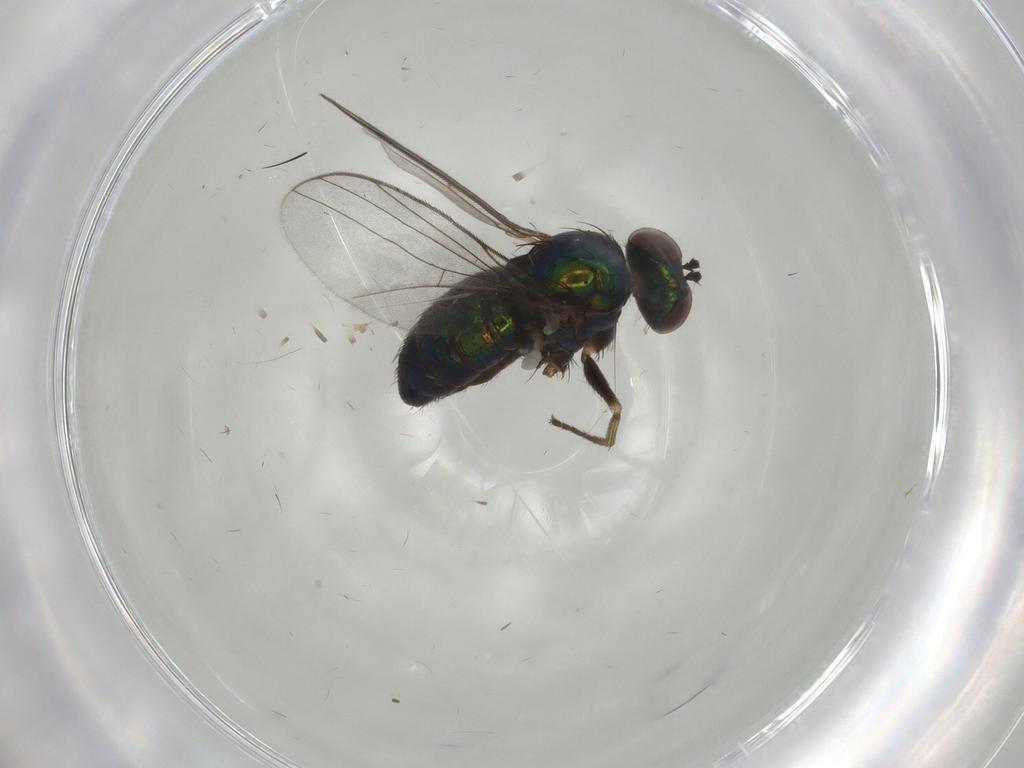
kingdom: Animalia
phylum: Arthropoda
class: Insecta
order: Diptera
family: Dolichopodidae
